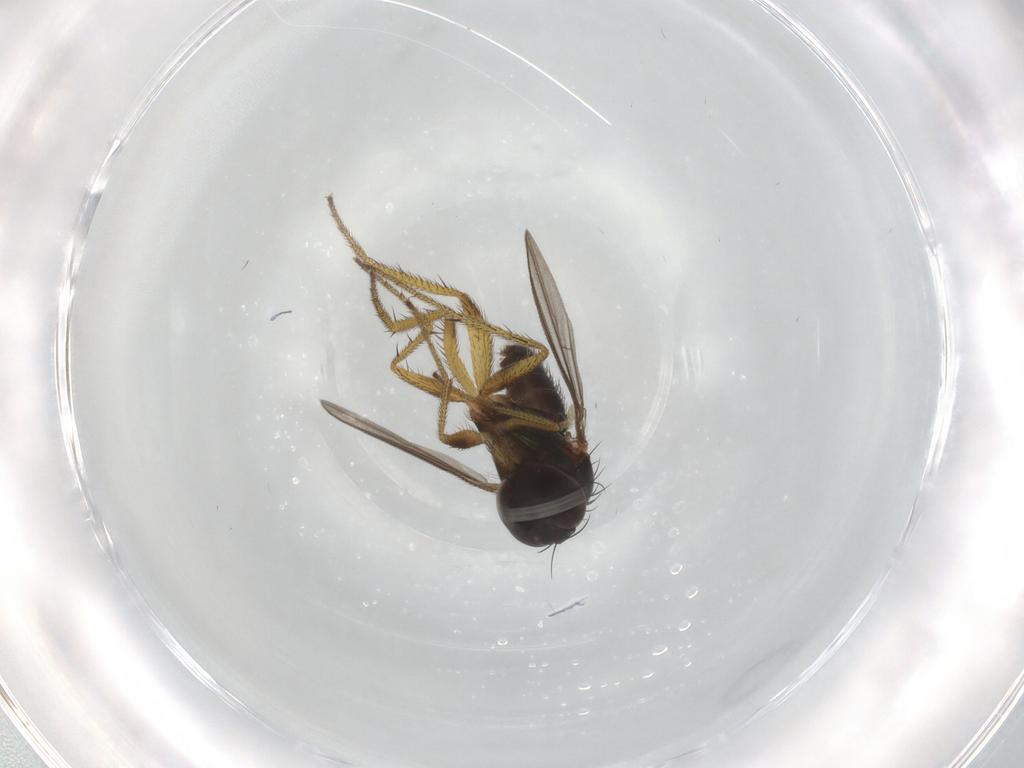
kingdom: Animalia
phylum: Arthropoda
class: Insecta
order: Diptera
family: Dolichopodidae
